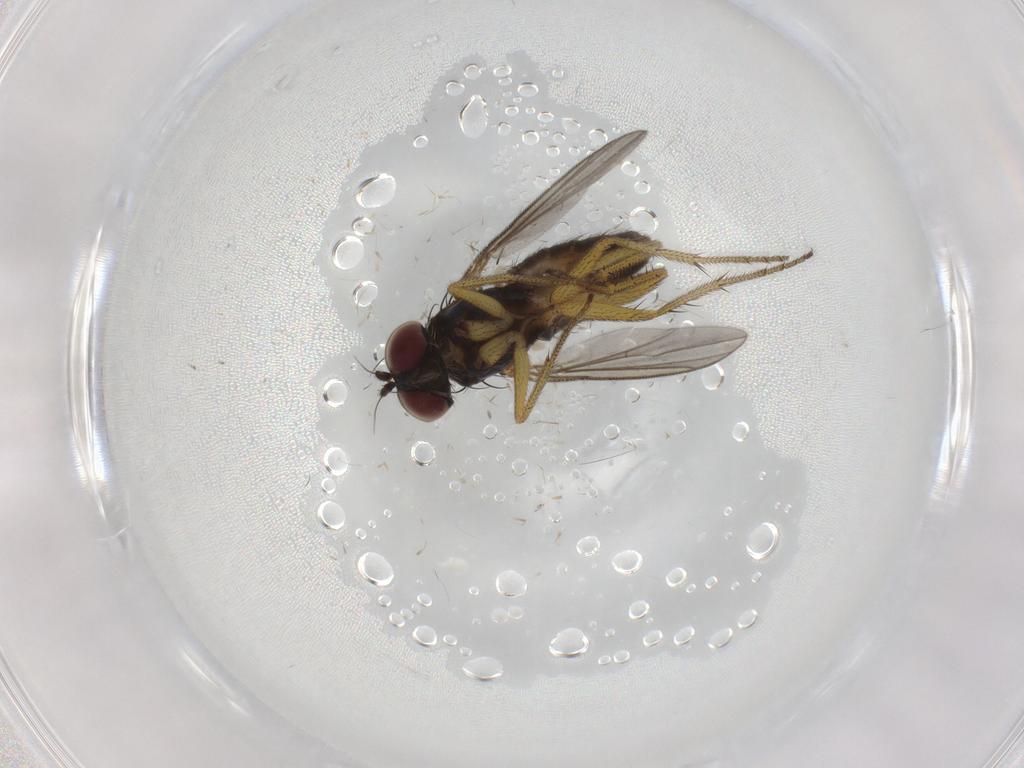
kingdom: Animalia
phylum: Arthropoda
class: Insecta
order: Diptera
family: Dolichopodidae
